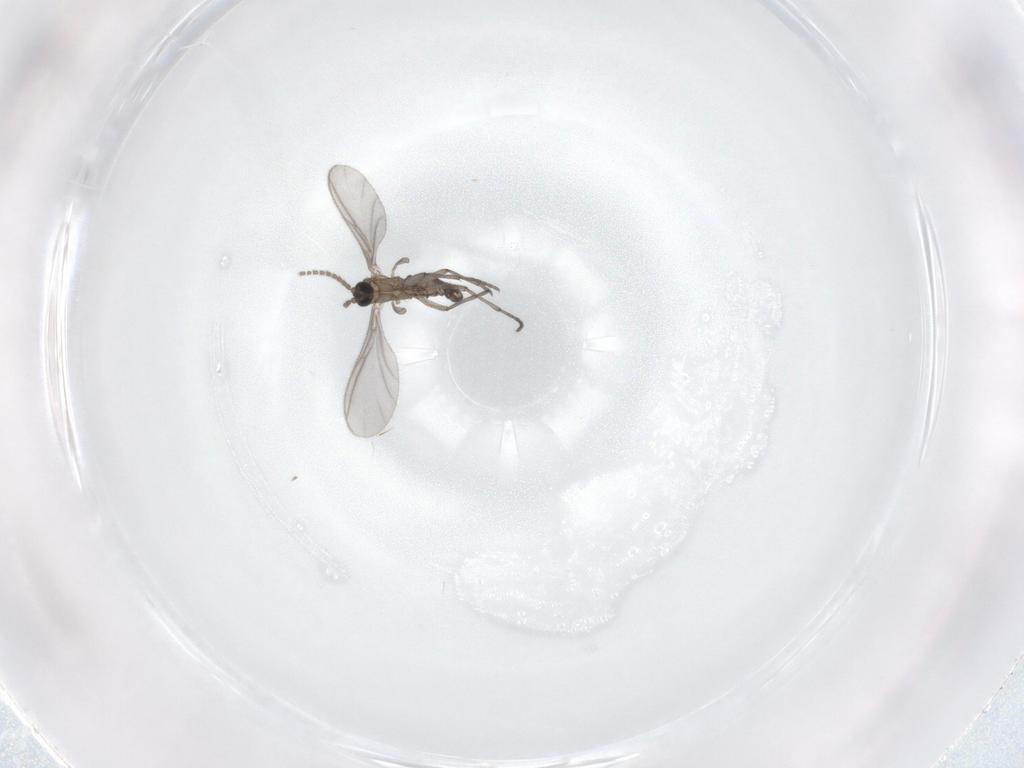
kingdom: Animalia
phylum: Arthropoda
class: Insecta
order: Diptera
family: Sciaridae
